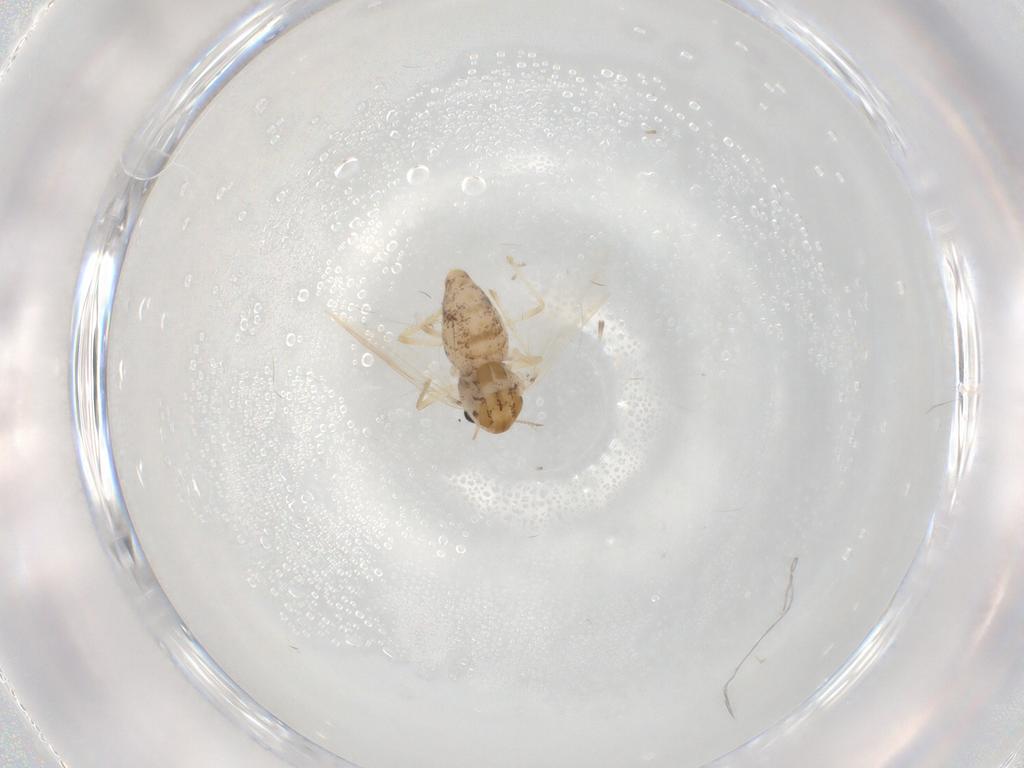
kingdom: Animalia
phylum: Arthropoda
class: Insecta
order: Diptera
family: Chironomidae
